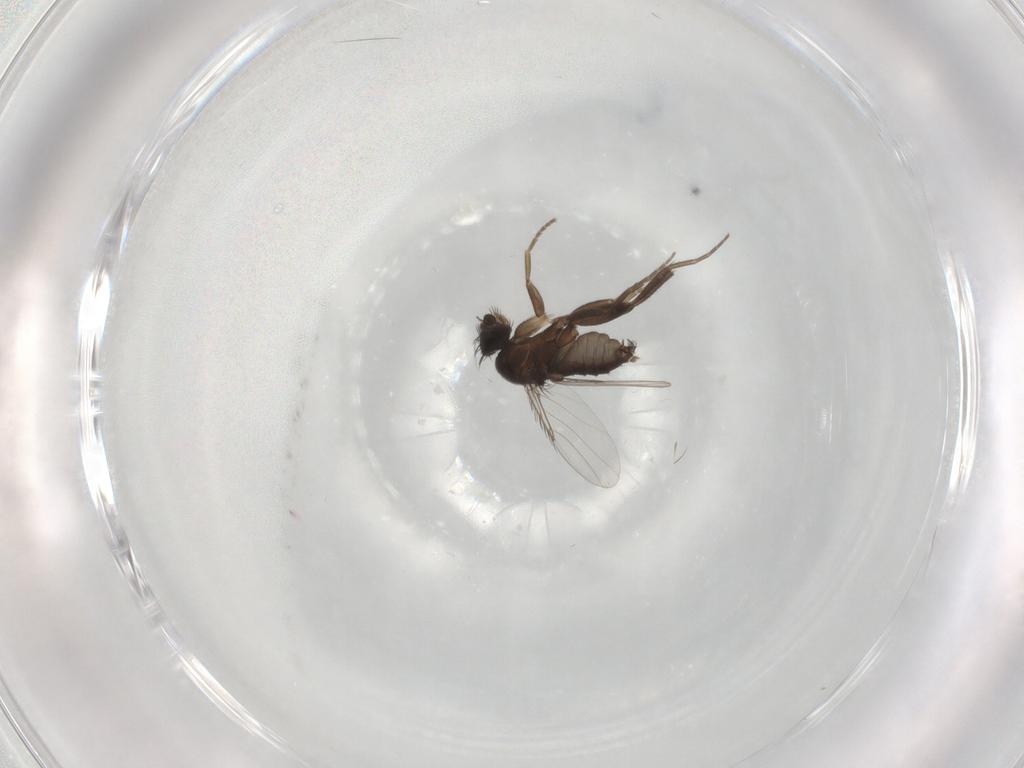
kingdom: Animalia
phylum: Arthropoda
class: Insecta
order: Diptera
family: Phoridae
